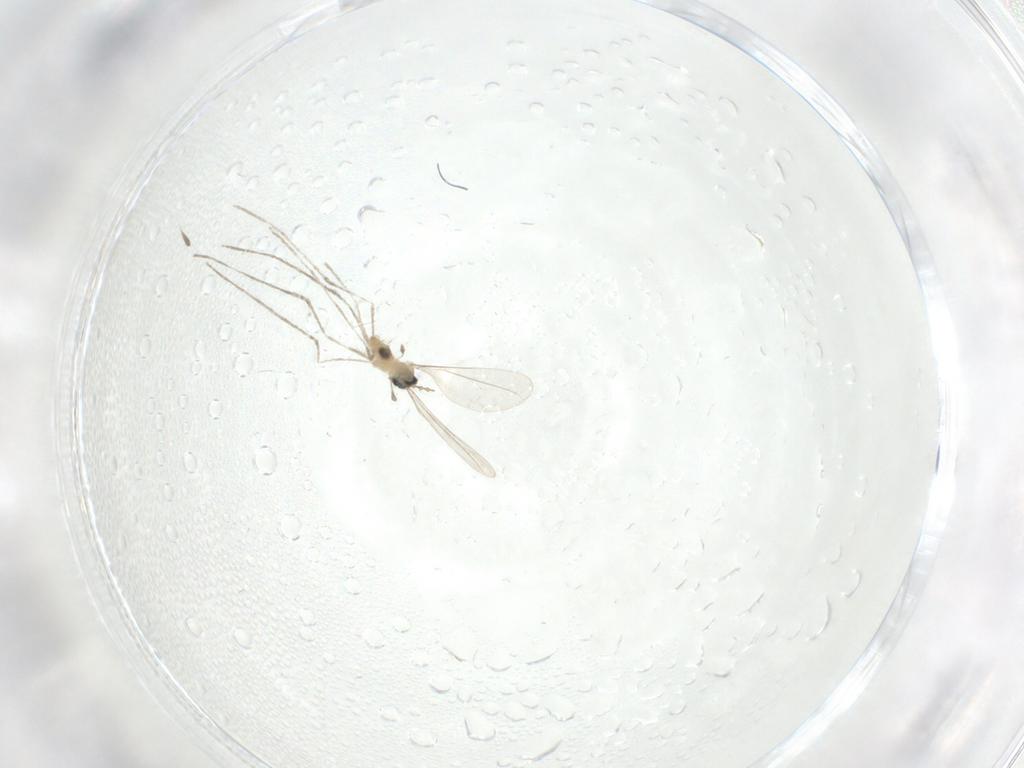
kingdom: Animalia
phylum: Arthropoda
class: Insecta
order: Diptera
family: Cecidomyiidae
